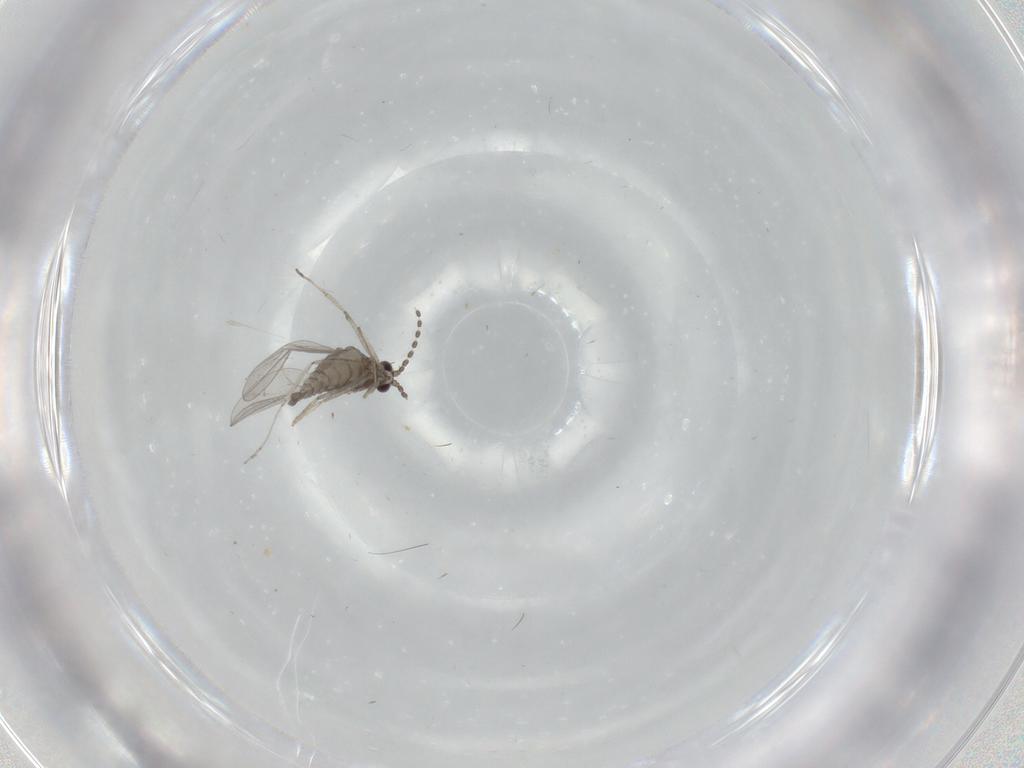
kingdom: Animalia
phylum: Arthropoda
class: Insecta
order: Diptera
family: Cecidomyiidae
